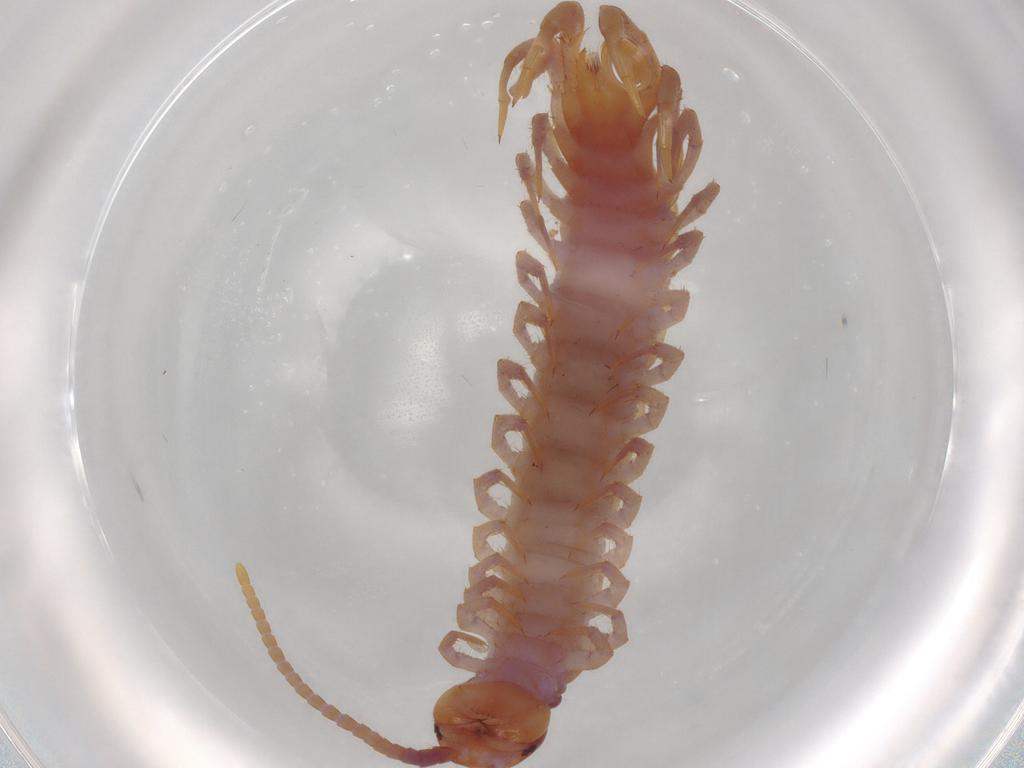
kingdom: Animalia
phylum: Arthropoda
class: Chilopoda
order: Lithobiomorpha
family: Lithobiidae
